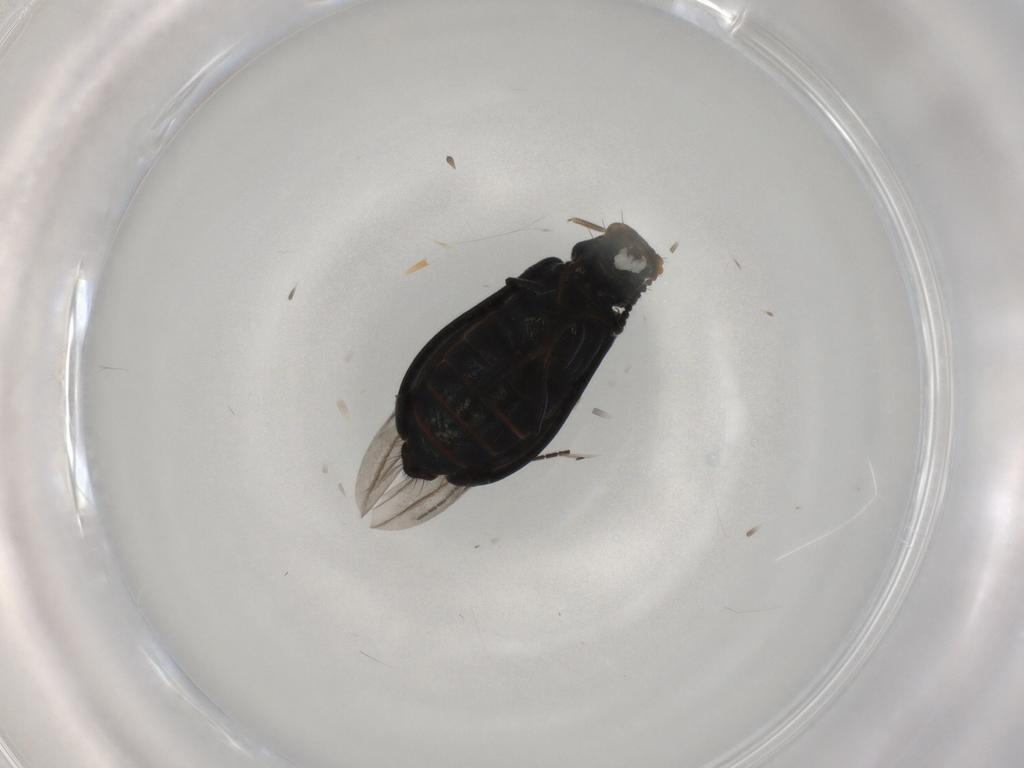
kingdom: Animalia
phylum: Arthropoda
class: Insecta
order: Coleoptera
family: Melyridae
